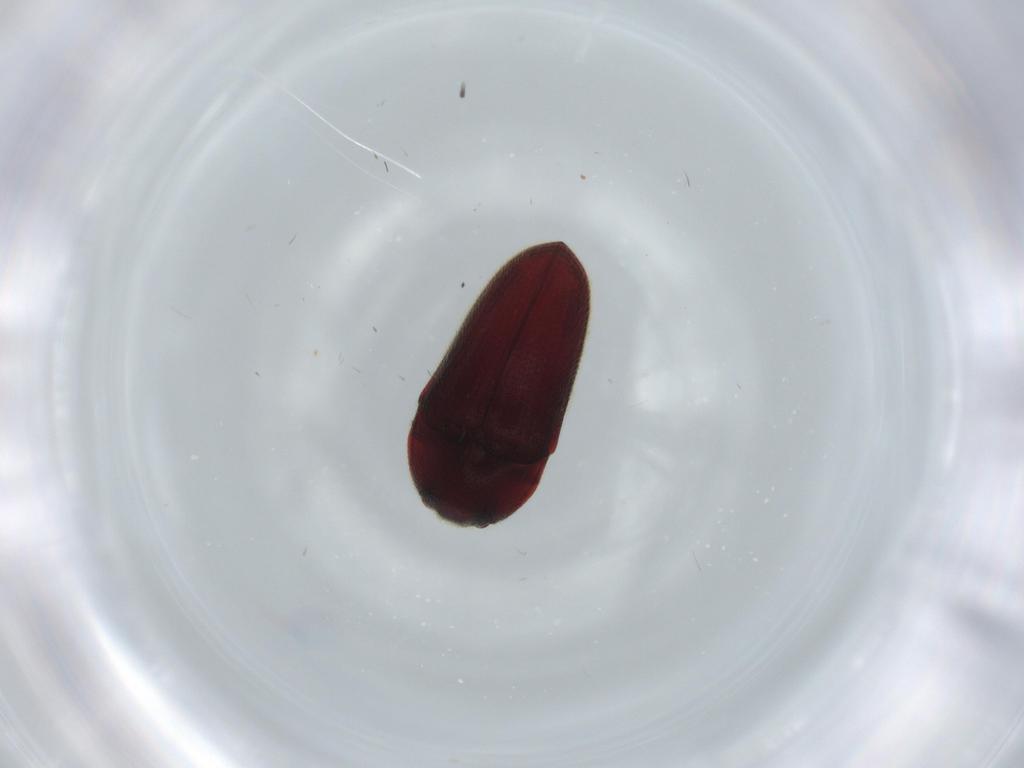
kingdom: Animalia
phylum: Arthropoda
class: Insecta
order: Coleoptera
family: Throscidae
